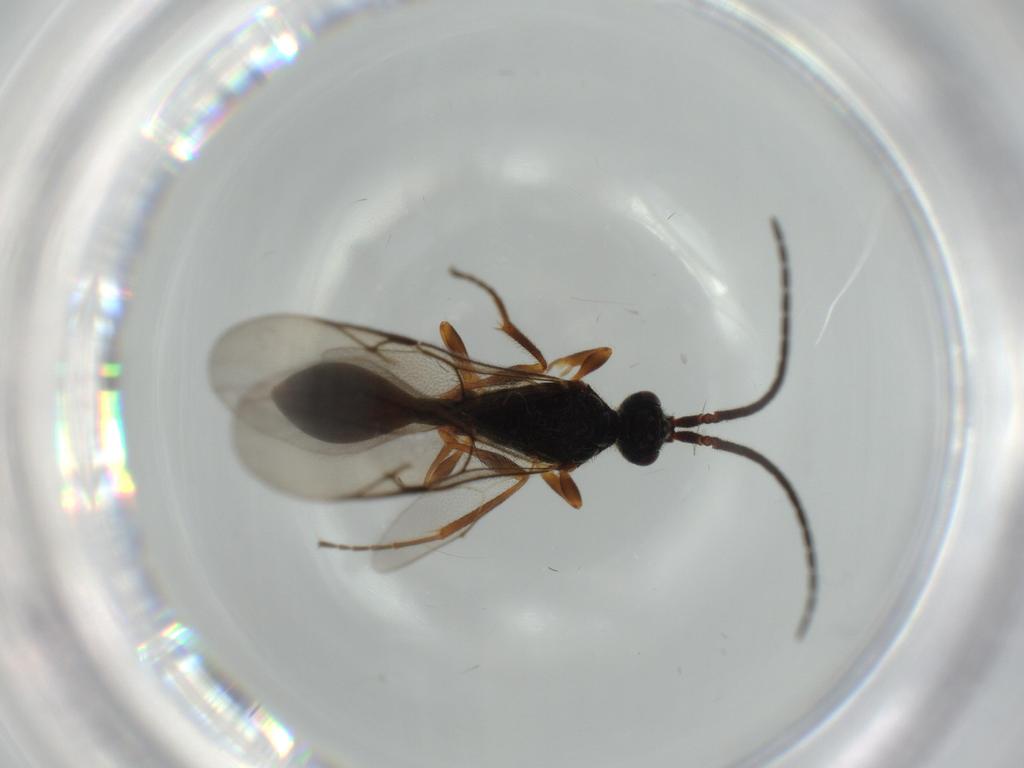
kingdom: Animalia
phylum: Arthropoda
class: Insecta
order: Hymenoptera
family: Diapriidae
